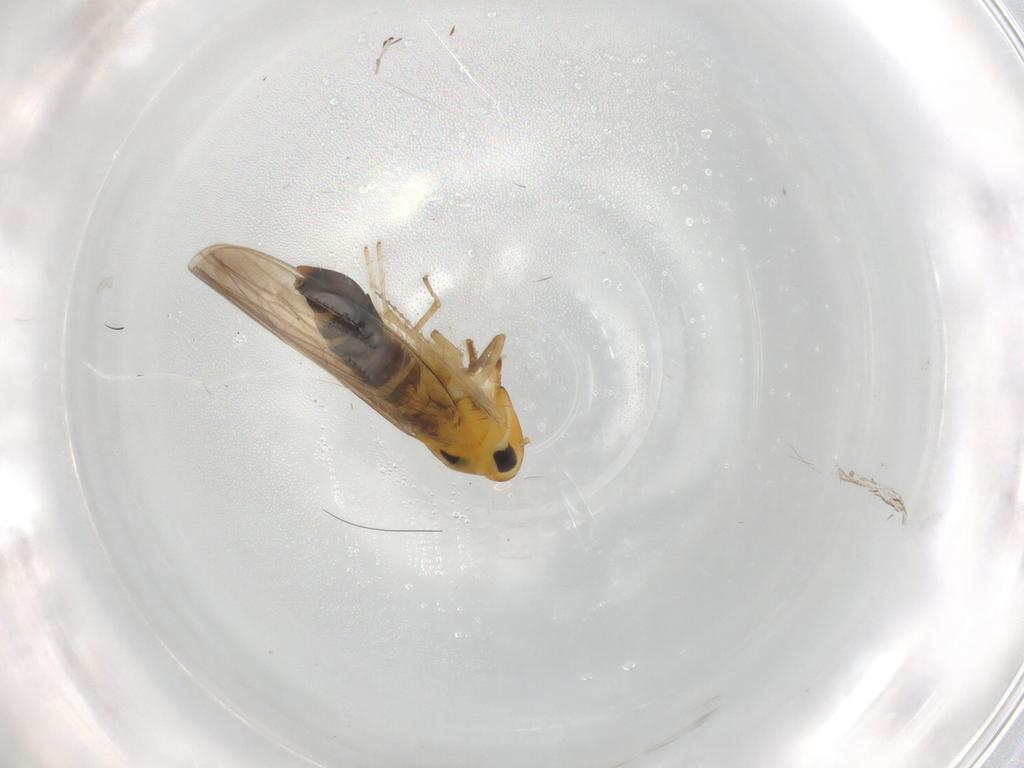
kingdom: Animalia
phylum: Arthropoda
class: Insecta
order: Hemiptera
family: Cicadellidae
